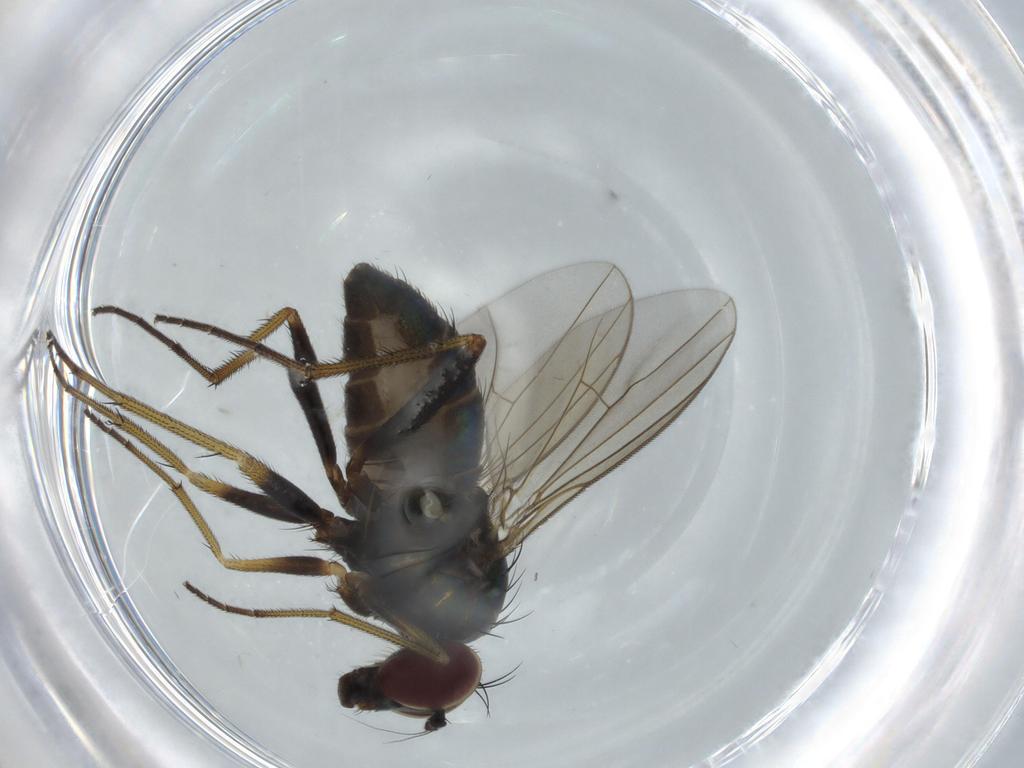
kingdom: Animalia
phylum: Arthropoda
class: Insecta
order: Diptera
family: Dolichopodidae
